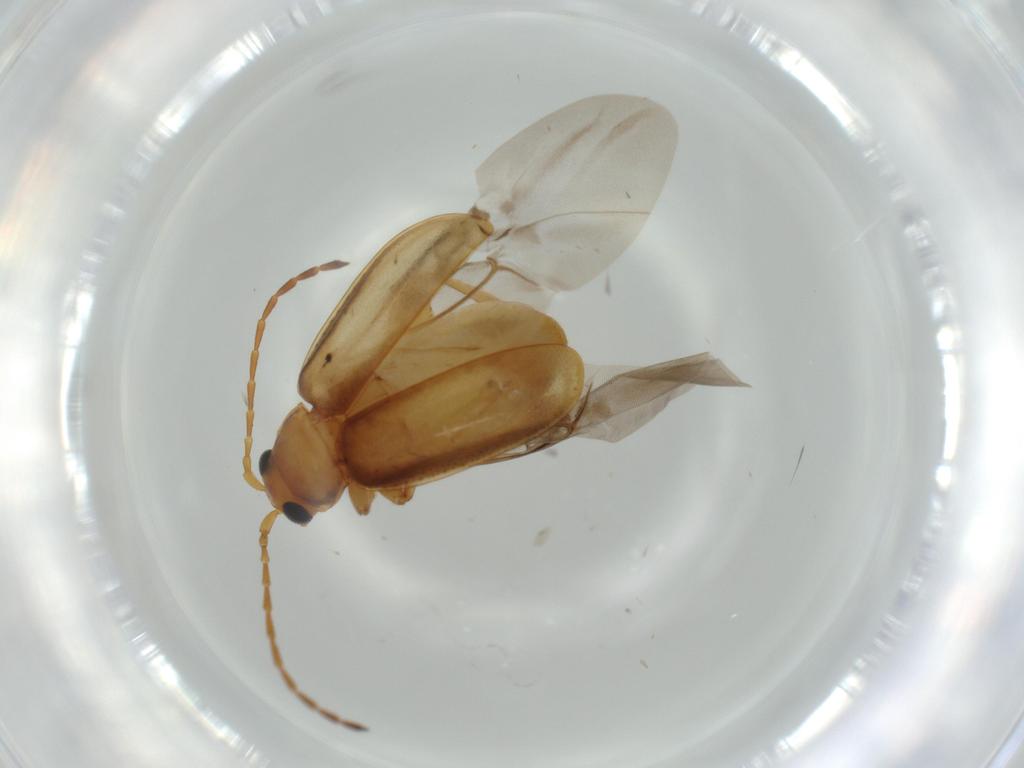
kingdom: Animalia
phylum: Arthropoda
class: Insecta
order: Coleoptera
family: Chrysomelidae
